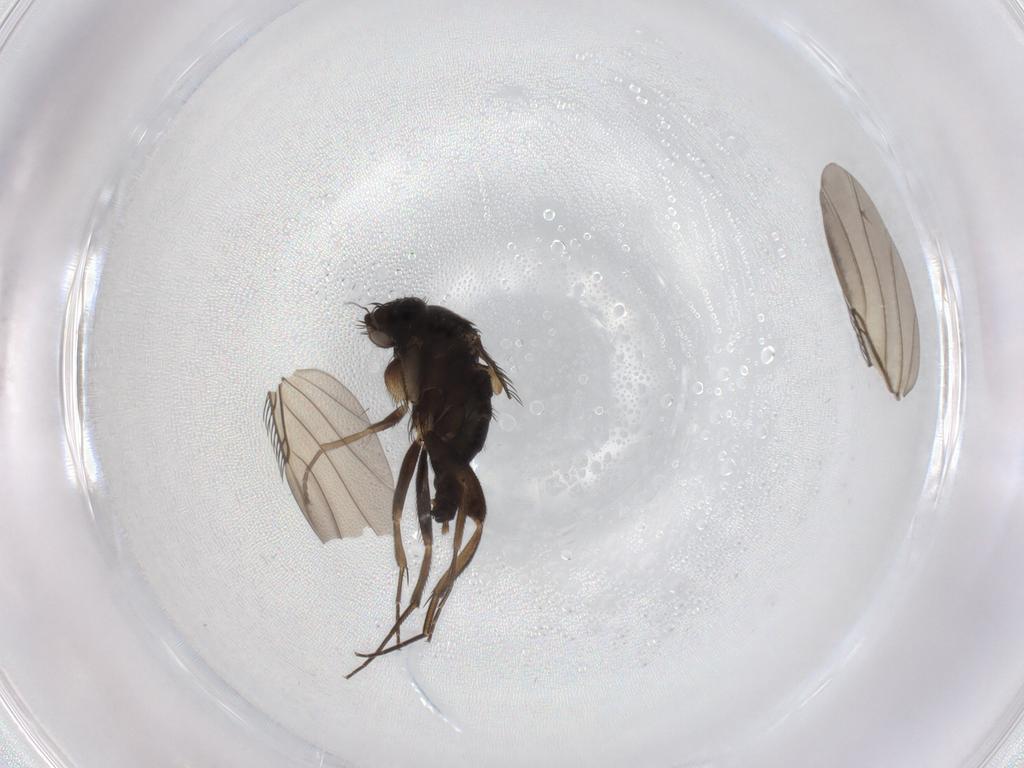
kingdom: Animalia
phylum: Arthropoda
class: Insecta
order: Diptera
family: Phoridae
